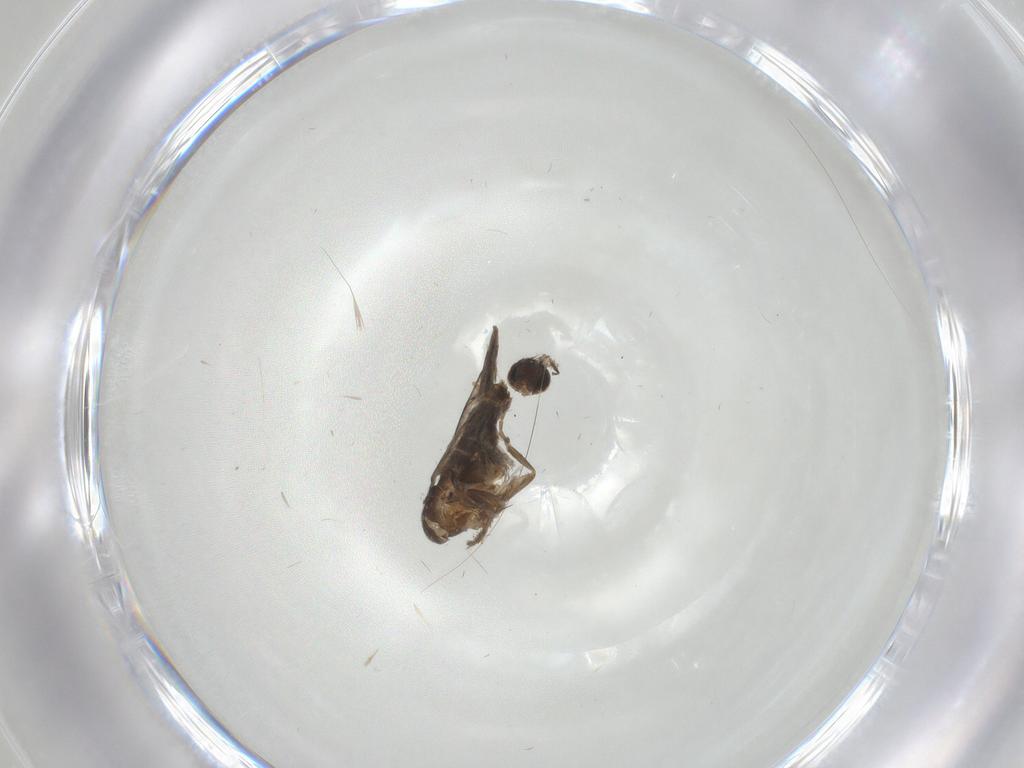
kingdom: Animalia
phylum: Arthropoda
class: Insecta
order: Diptera
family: Phoridae
